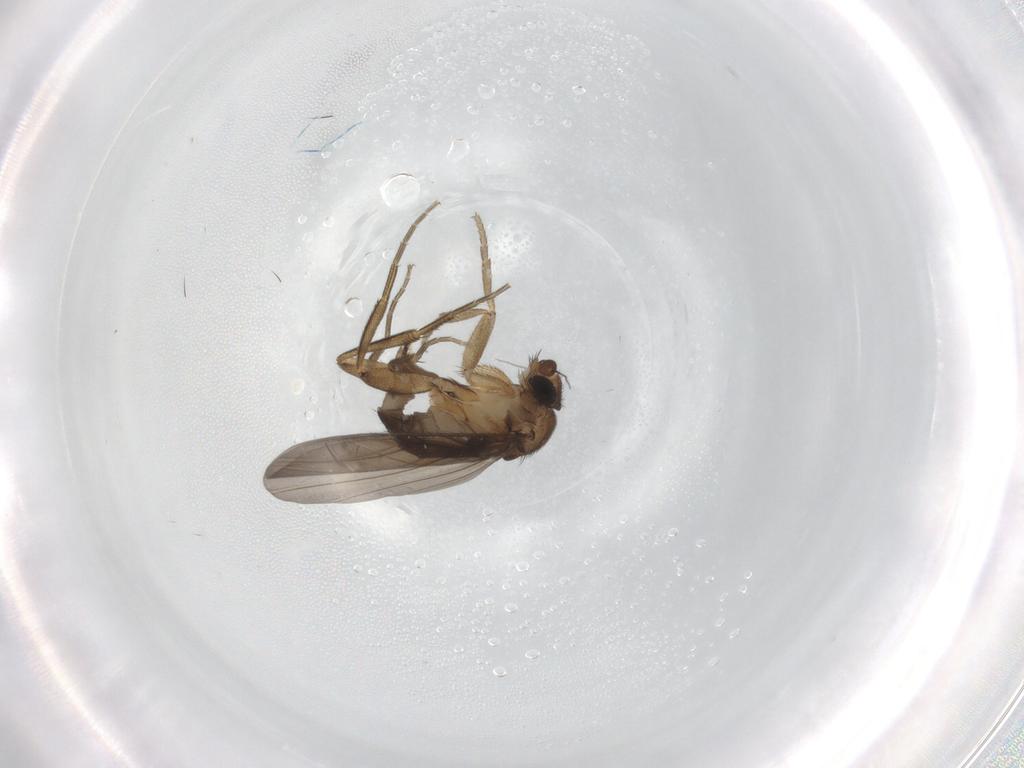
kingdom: Animalia
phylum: Arthropoda
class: Insecta
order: Diptera
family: Phoridae
